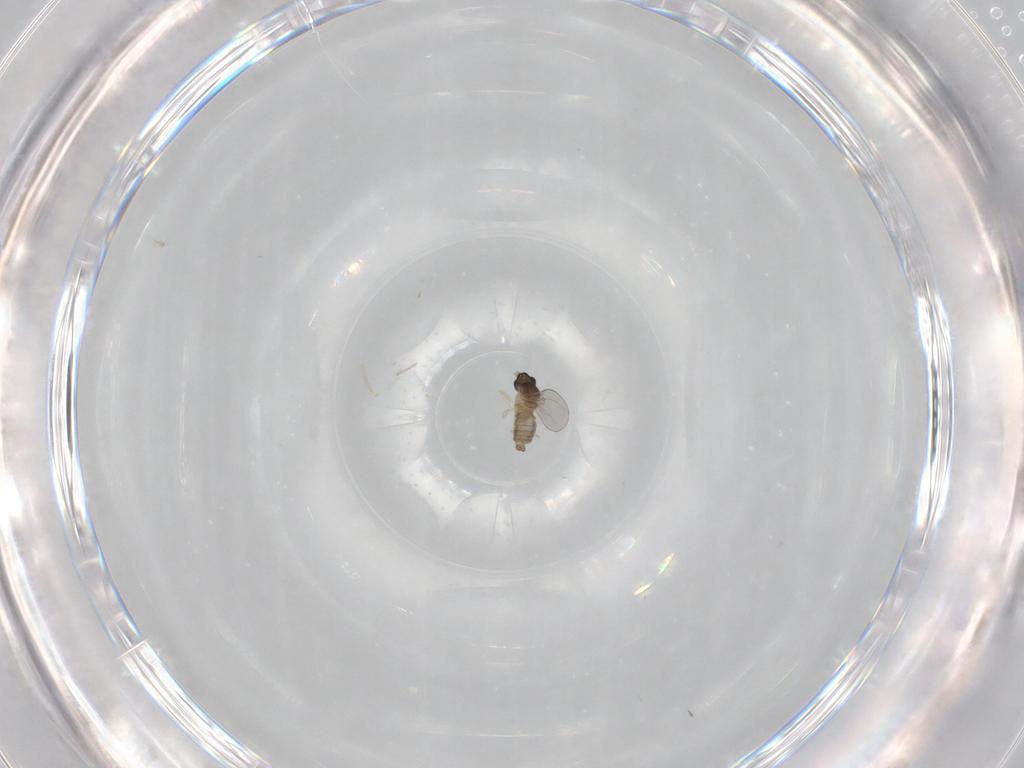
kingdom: Animalia
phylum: Arthropoda
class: Insecta
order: Diptera
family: Cecidomyiidae
